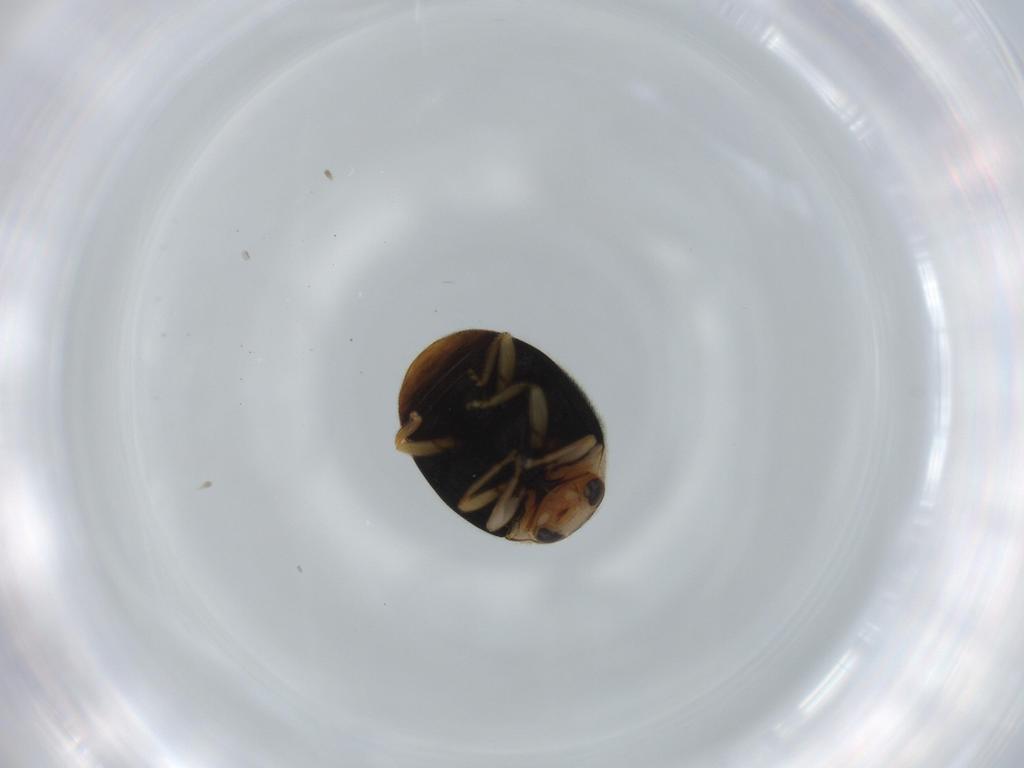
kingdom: Animalia
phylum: Arthropoda
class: Insecta
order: Coleoptera
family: Coccinellidae
